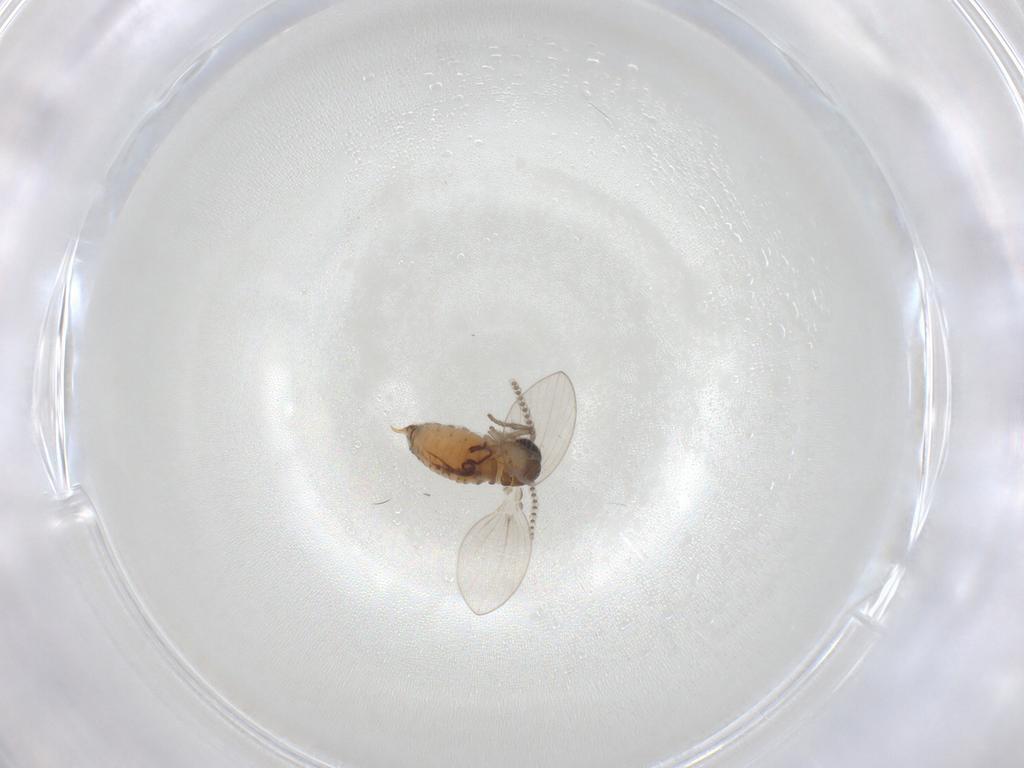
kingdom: Animalia
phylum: Arthropoda
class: Insecta
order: Diptera
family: Psychodidae
